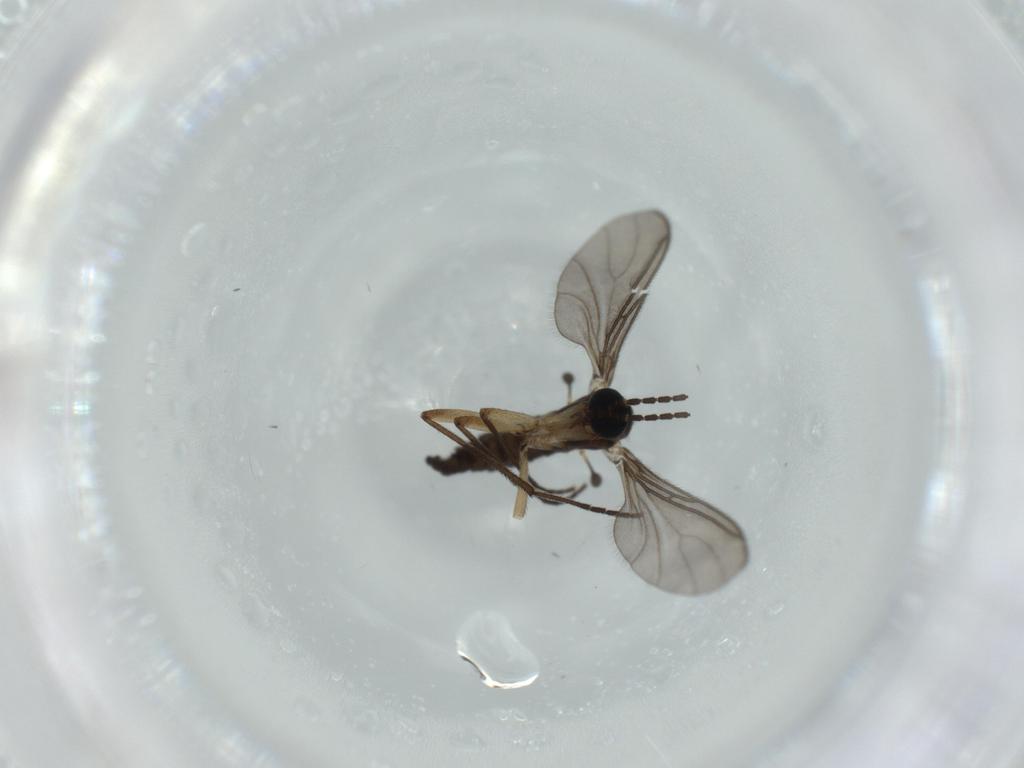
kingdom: Animalia
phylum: Arthropoda
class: Insecta
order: Diptera
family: Sciaridae
